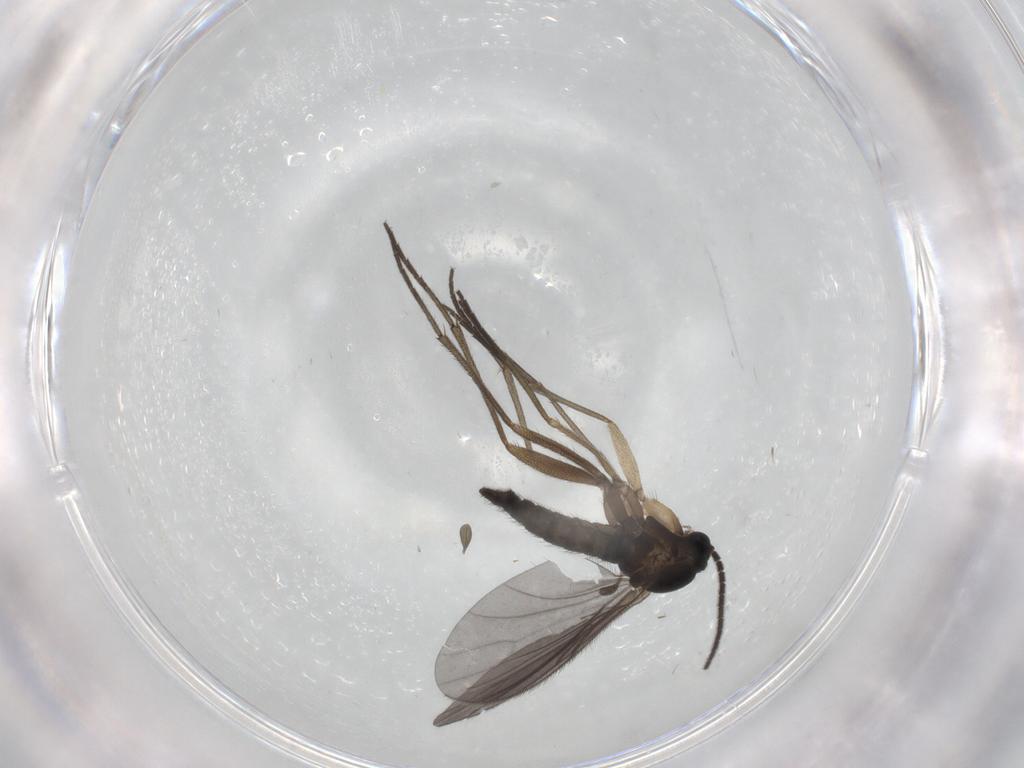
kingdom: Animalia
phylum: Arthropoda
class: Insecta
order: Diptera
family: Sciaridae
